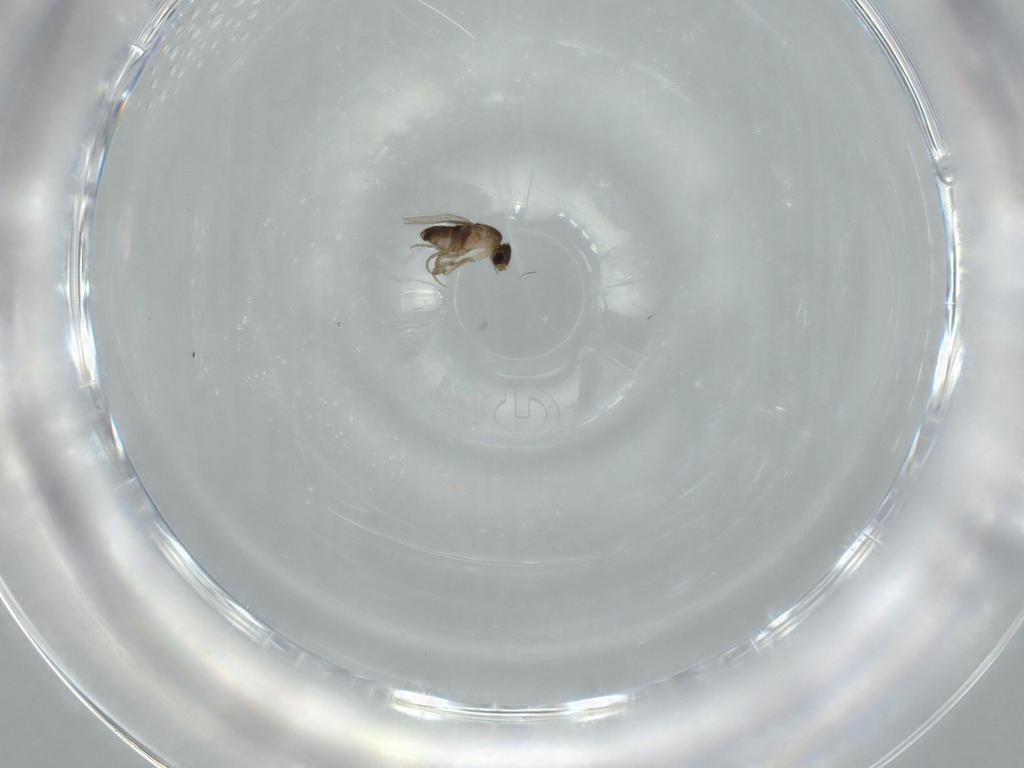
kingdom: Animalia
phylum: Arthropoda
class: Insecta
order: Diptera
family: Phoridae
